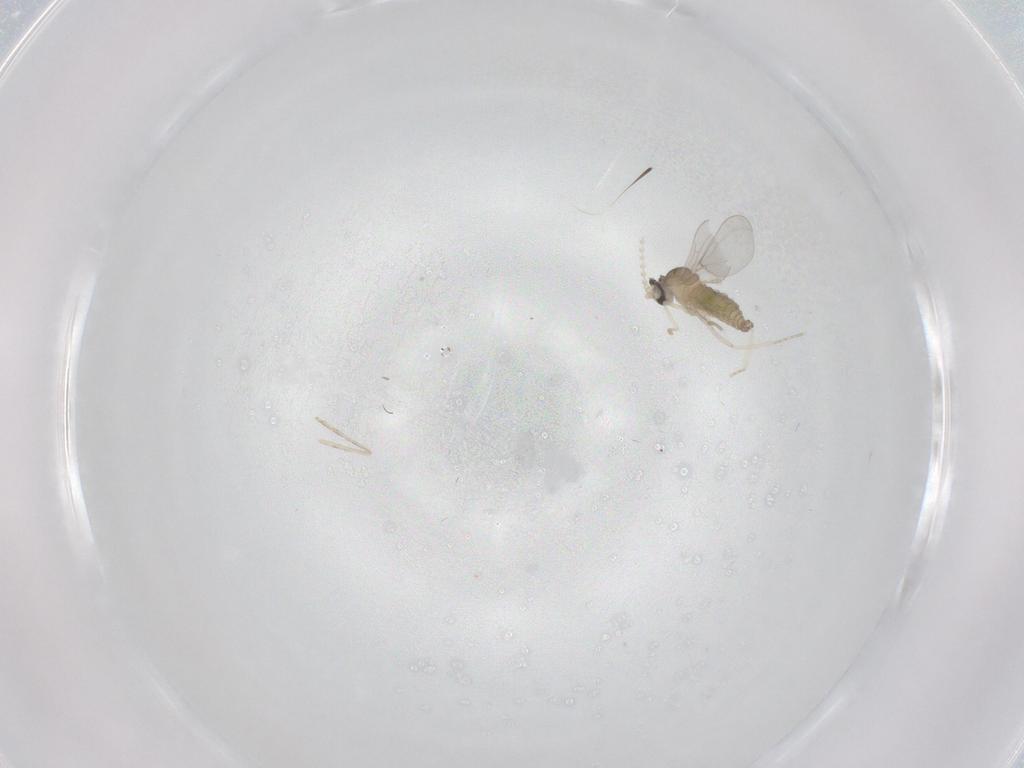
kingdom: Animalia
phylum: Arthropoda
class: Insecta
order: Diptera
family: Cecidomyiidae
